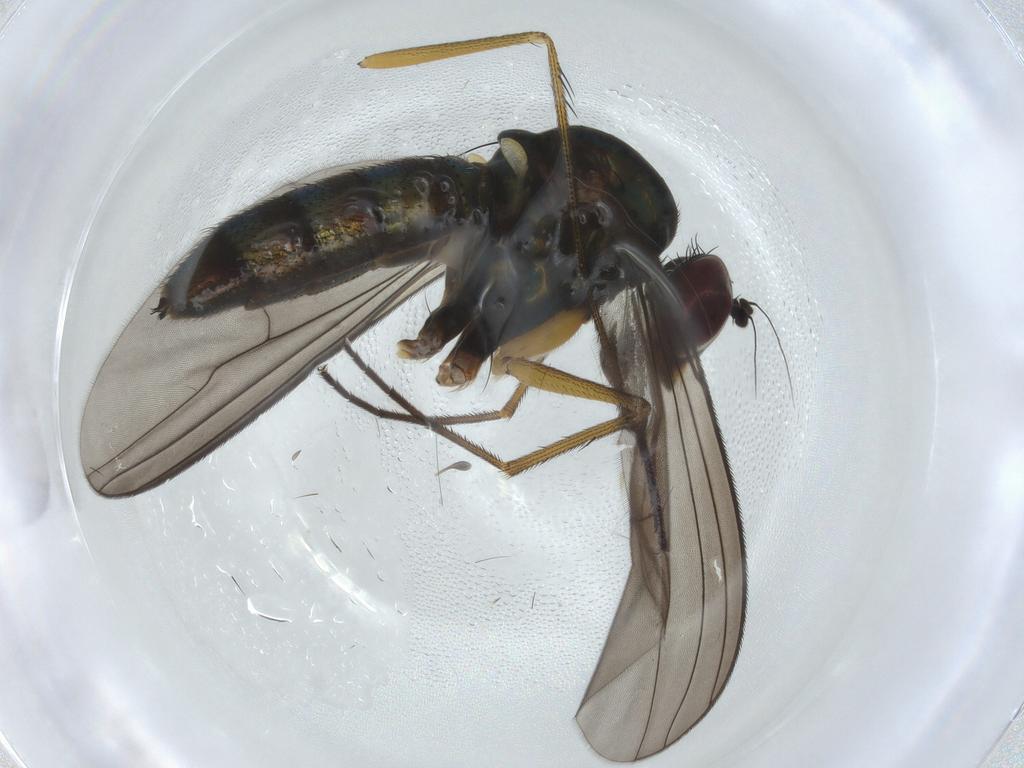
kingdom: Animalia
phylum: Arthropoda
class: Insecta
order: Diptera
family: Dolichopodidae
